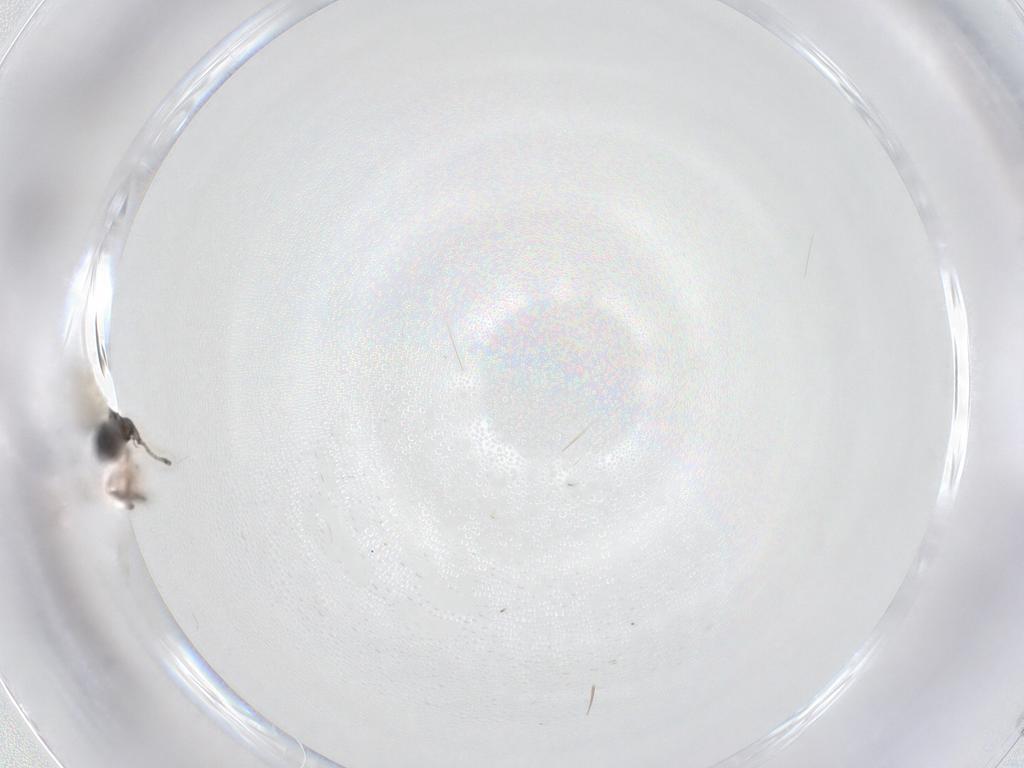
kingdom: Animalia
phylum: Arthropoda
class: Insecta
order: Hymenoptera
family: Diapriidae
